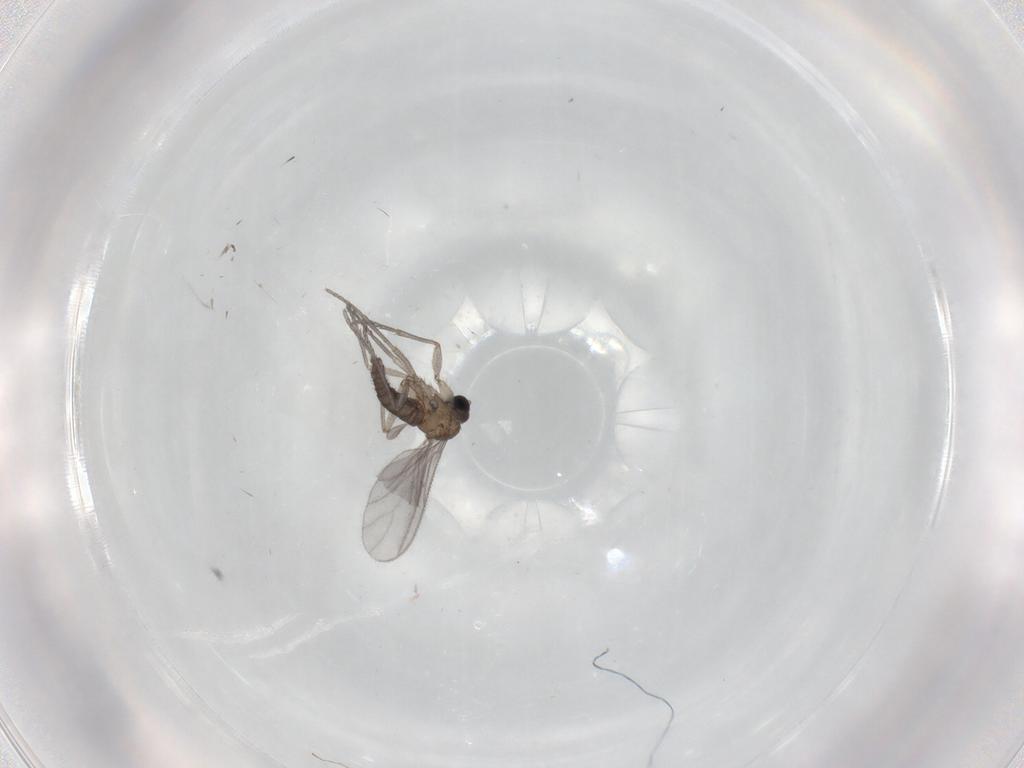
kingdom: Animalia
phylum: Arthropoda
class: Insecta
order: Diptera
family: Sciaridae
